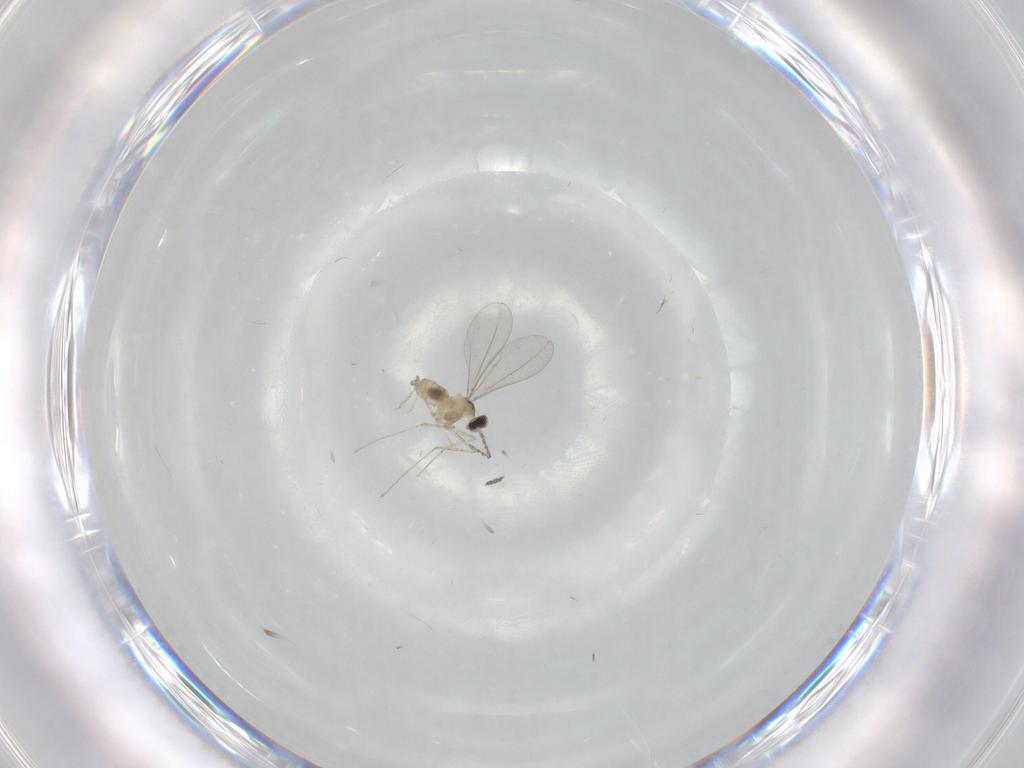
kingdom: Animalia
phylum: Arthropoda
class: Insecta
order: Diptera
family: Cecidomyiidae
